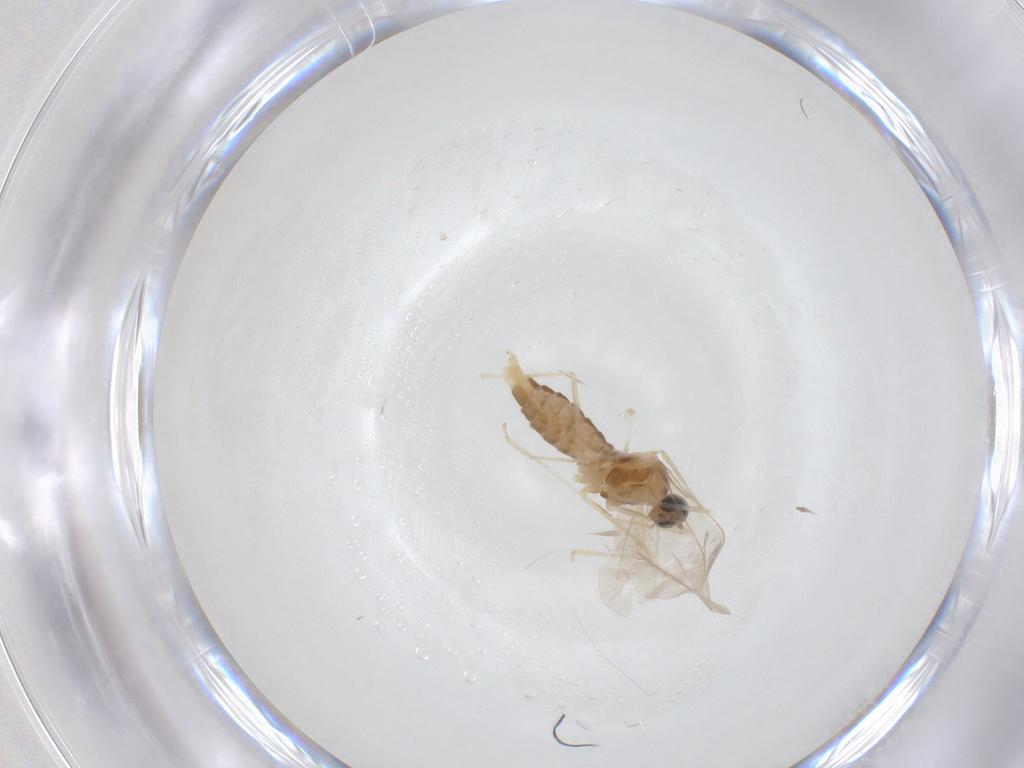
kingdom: Animalia
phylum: Arthropoda
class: Insecta
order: Diptera
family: Cecidomyiidae
